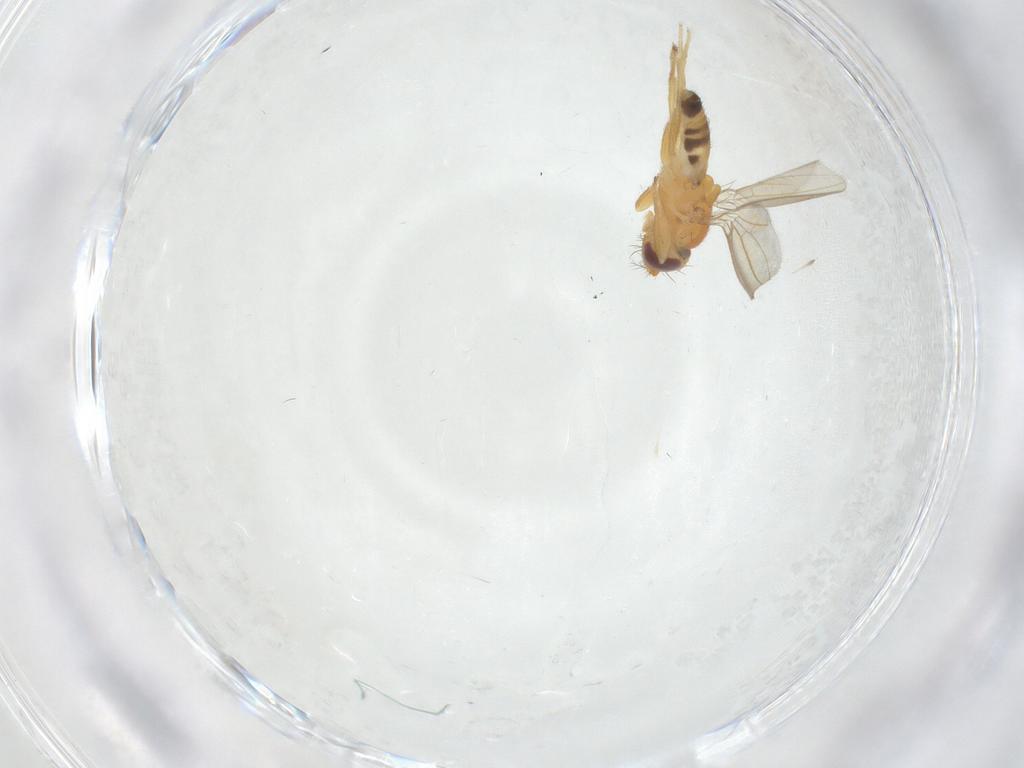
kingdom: Animalia
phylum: Arthropoda
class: Insecta
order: Diptera
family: Periscelididae
